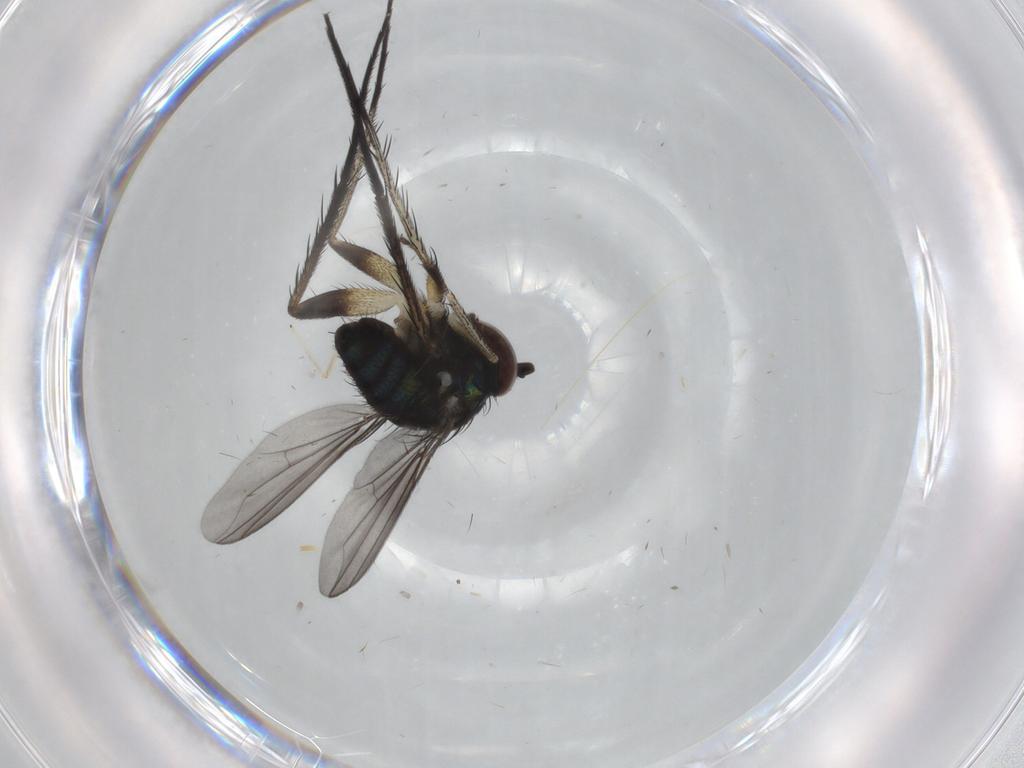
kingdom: Animalia
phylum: Arthropoda
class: Insecta
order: Diptera
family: Dolichopodidae
